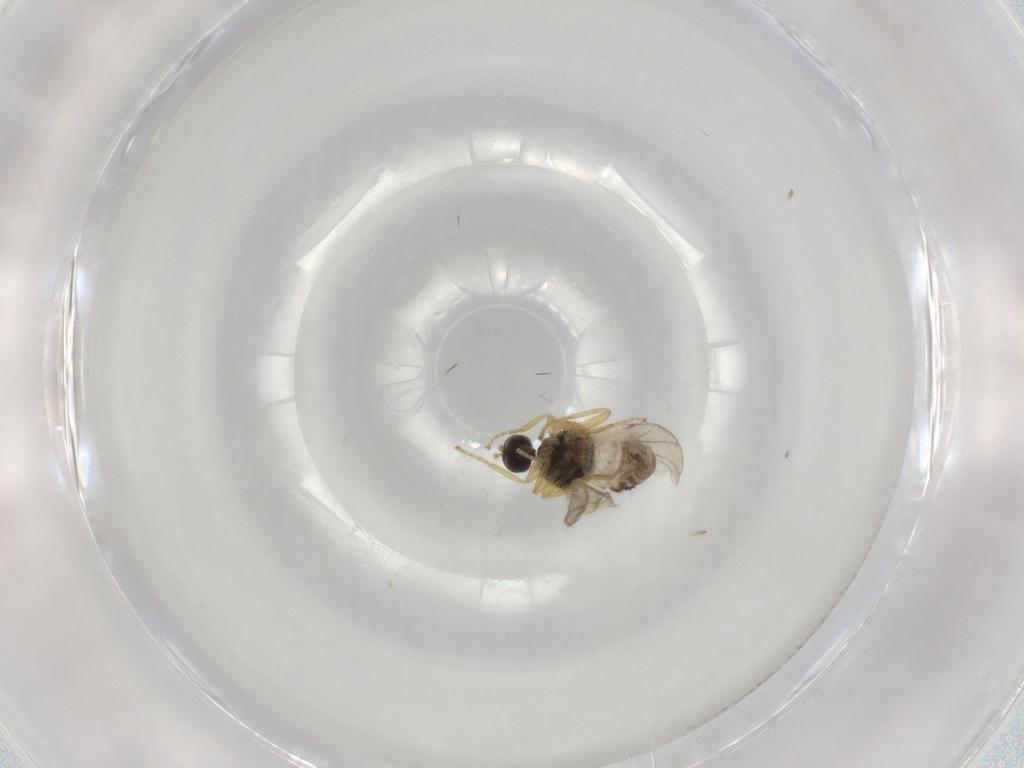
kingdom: Animalia
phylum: Arthropoda
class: Insecta
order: Diptera
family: Hybotidae
